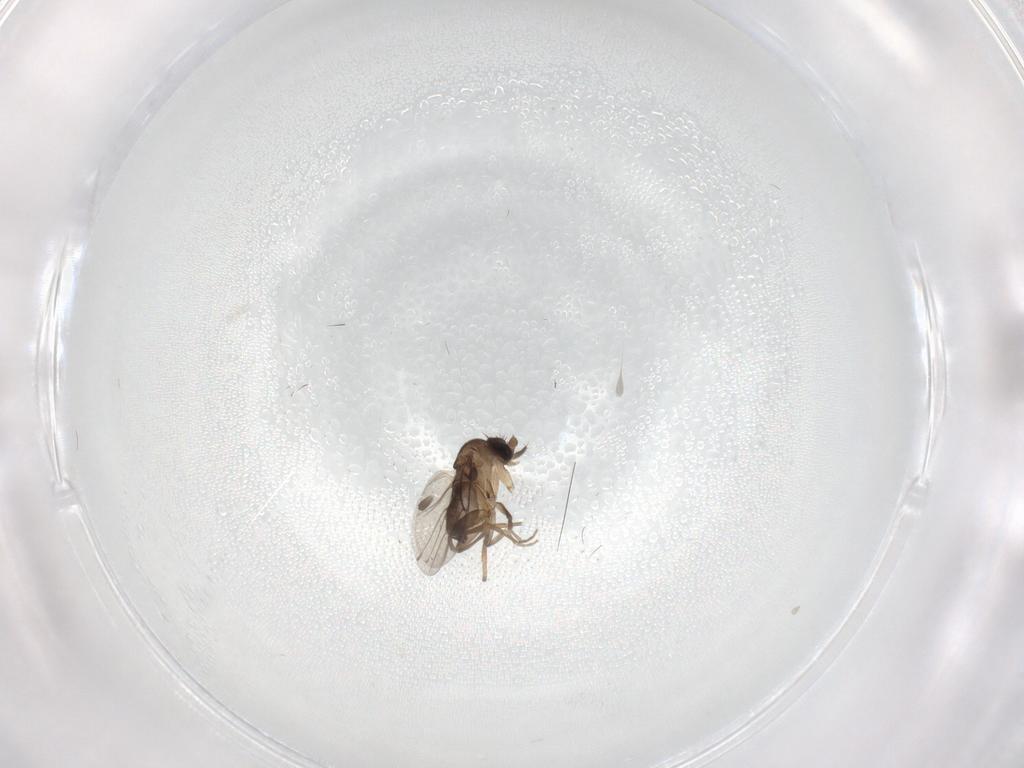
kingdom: Animalia
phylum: Arthropoda
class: Insecta
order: Diptera
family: Phoridae
